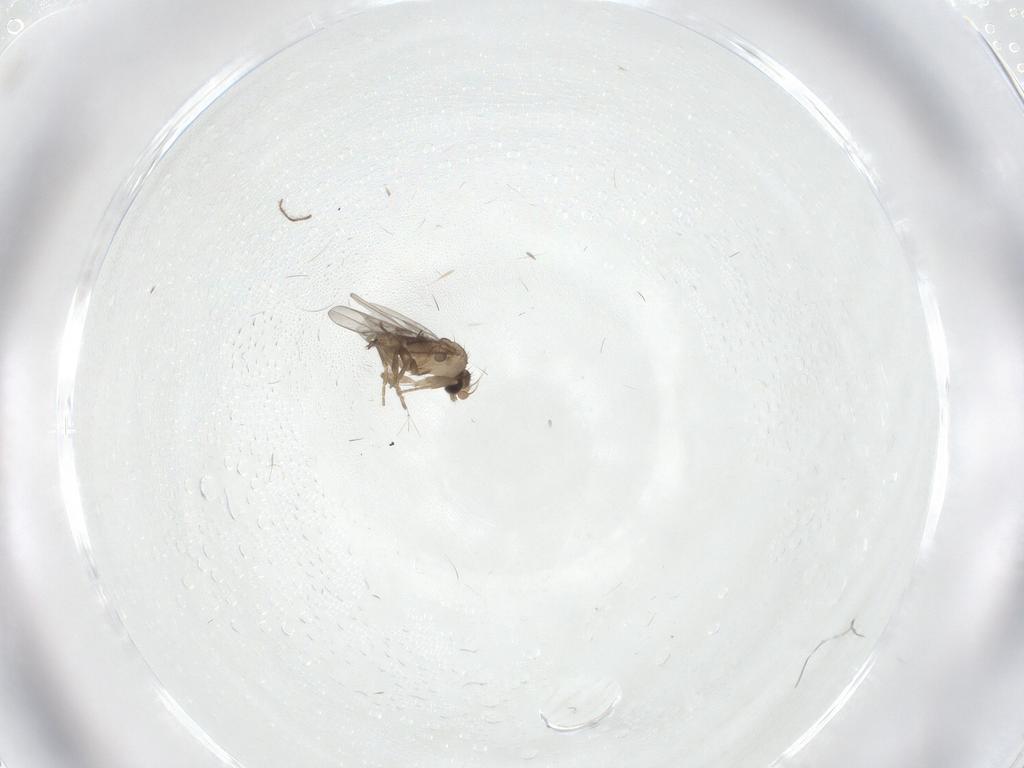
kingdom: Animalia
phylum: Arthropoda
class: Insecta
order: Diptera
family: Cecidomyiidae
